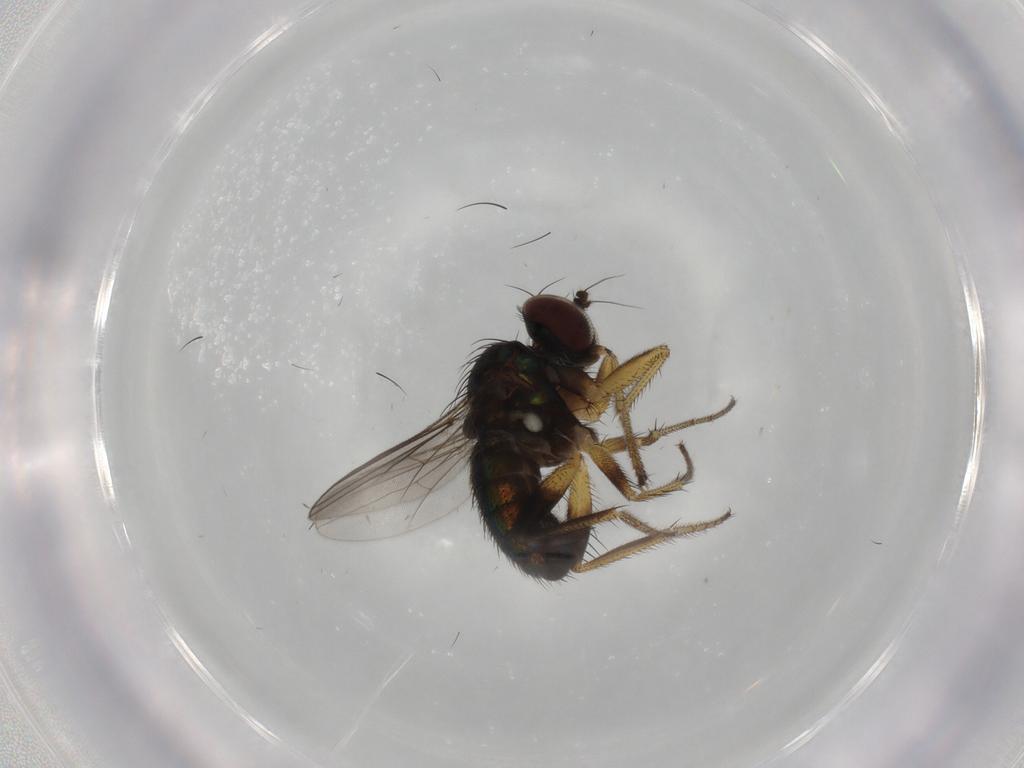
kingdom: Animalia
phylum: Arthropoda
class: Insecta
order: Diptera
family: Dolichopodidae
